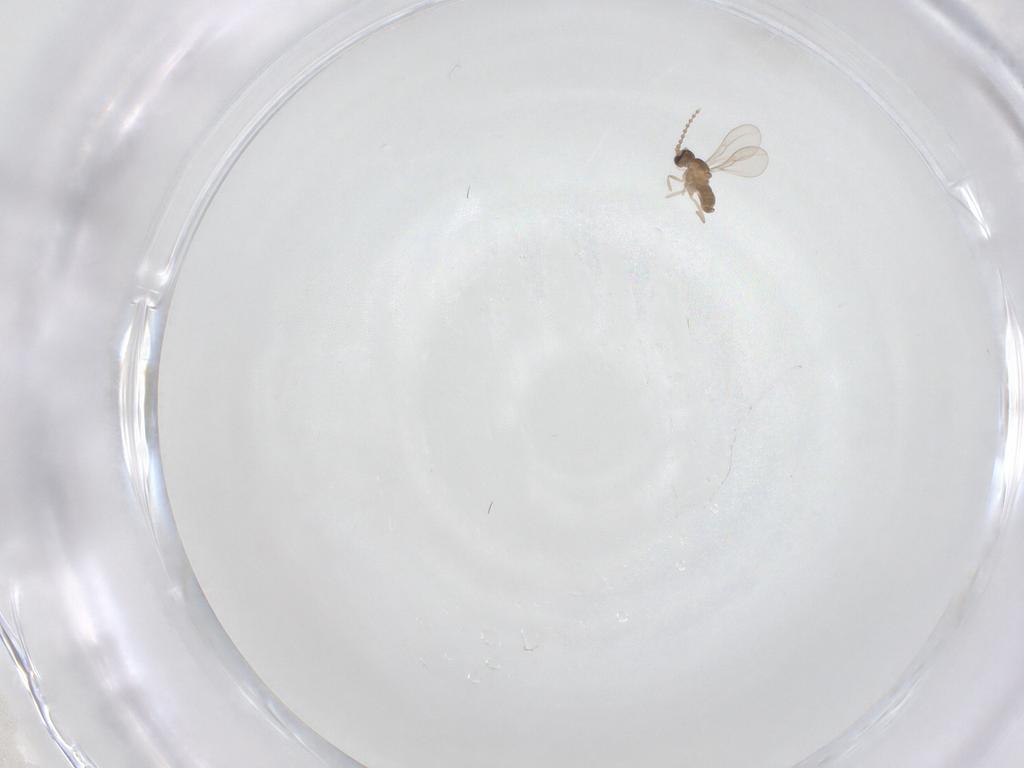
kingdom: Animalia
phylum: Arthropoda
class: Insecta
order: Diptera
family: Cecidomyiidae
